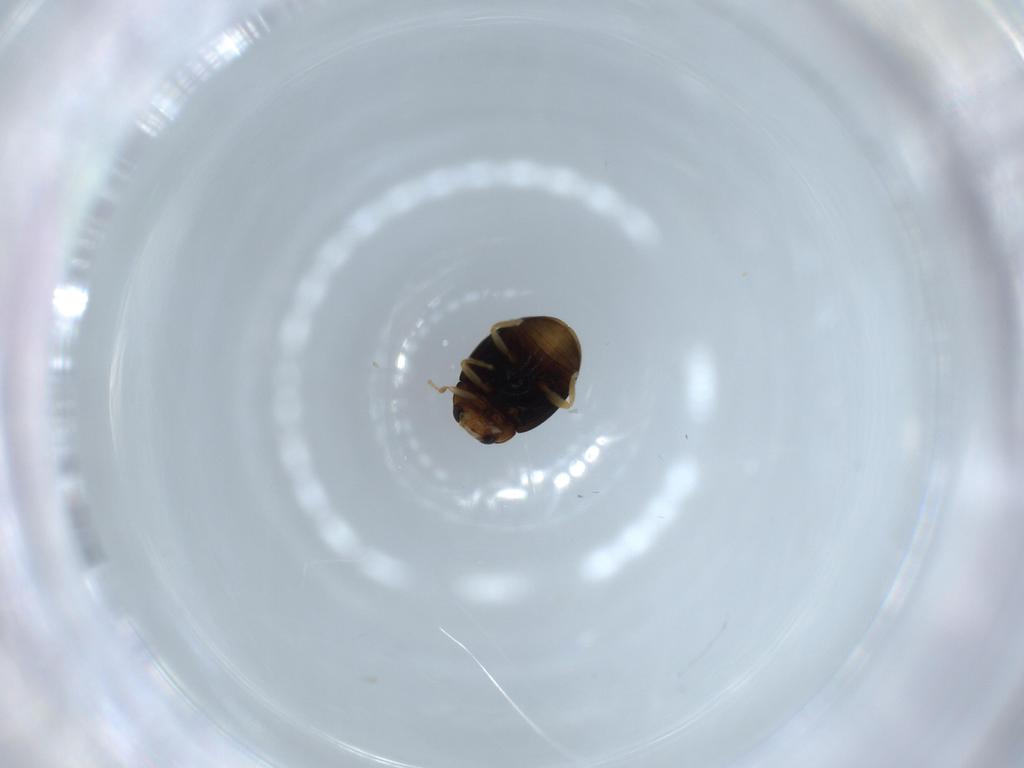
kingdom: Animalia
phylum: Arthropoda
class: Insecta
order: Coleoptera
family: Coccinellidae
